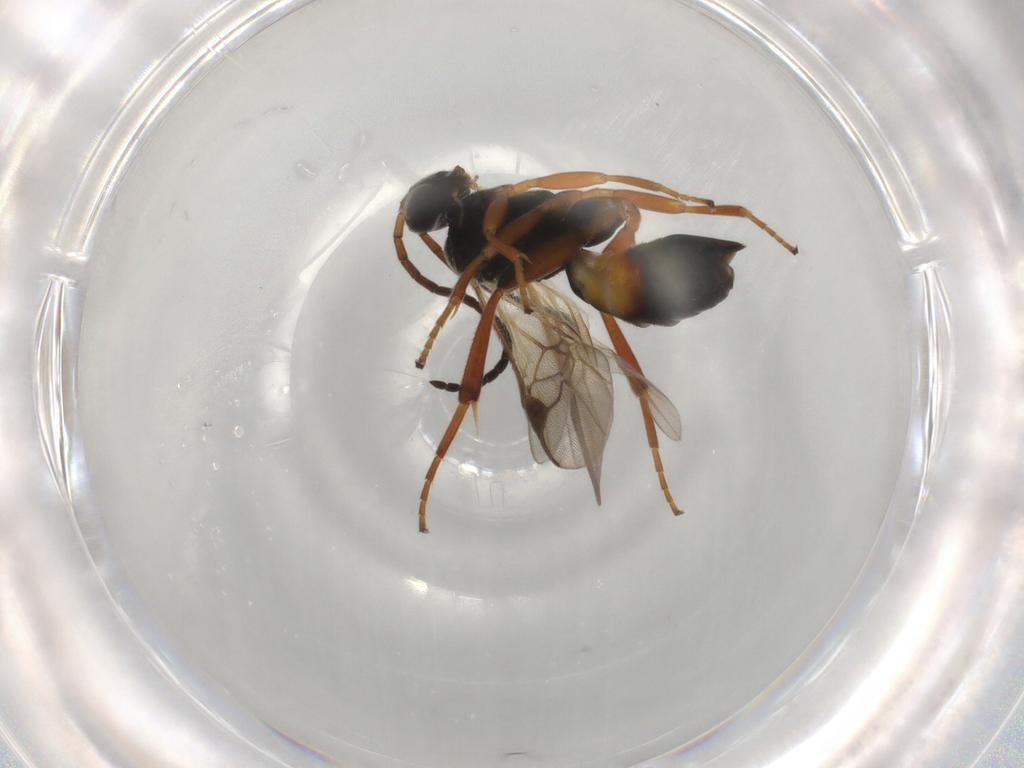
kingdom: Animalia
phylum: Arthropoda
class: Insecta
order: Hymenoptera
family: Braconidae
